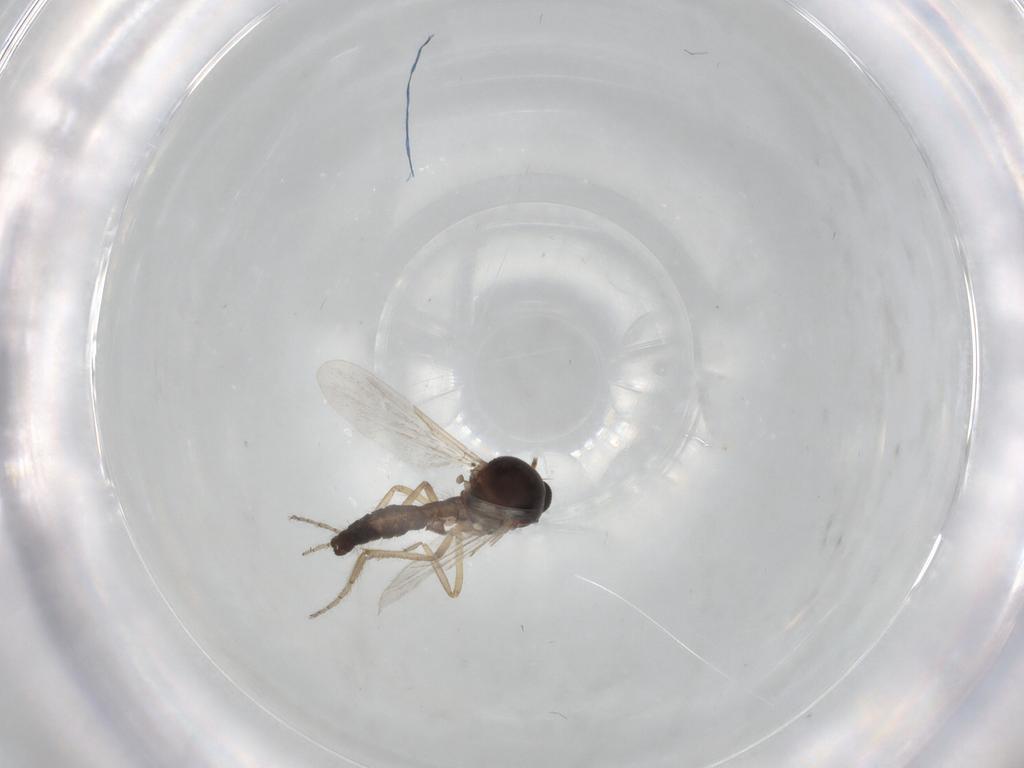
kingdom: Animalia
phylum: Arthropoda
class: Insecta
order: Diptera
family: Ceratopogonidae
